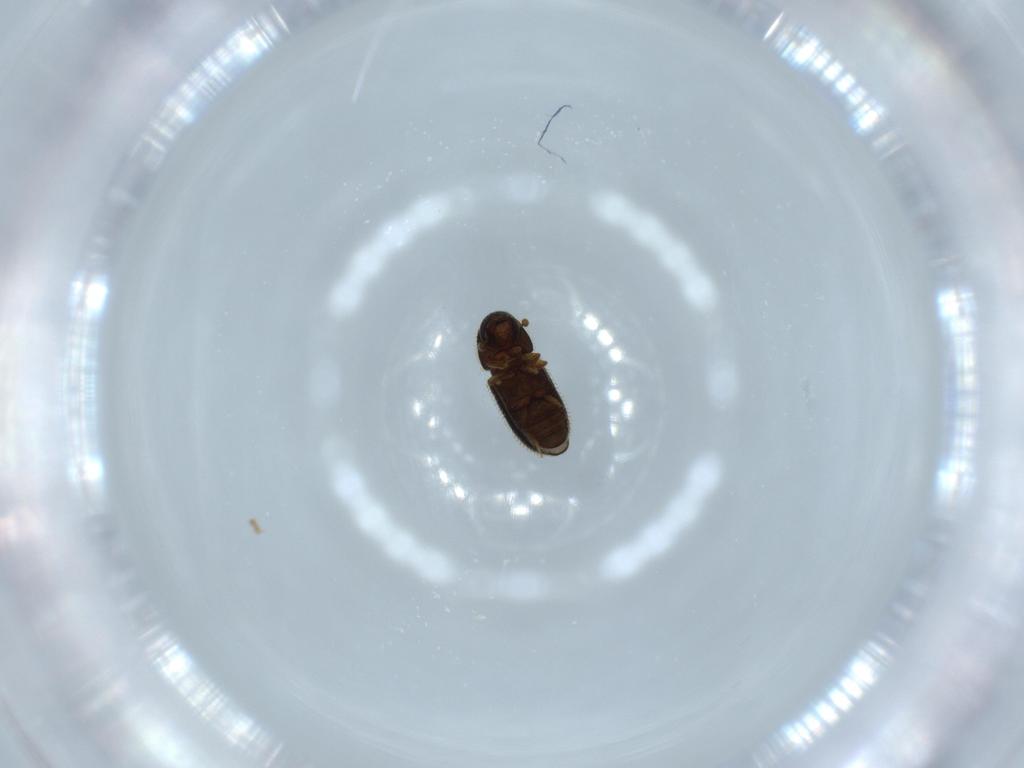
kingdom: Animalia
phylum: Arthropoda
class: Insecta
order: Coleoptera
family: Curculionidae
